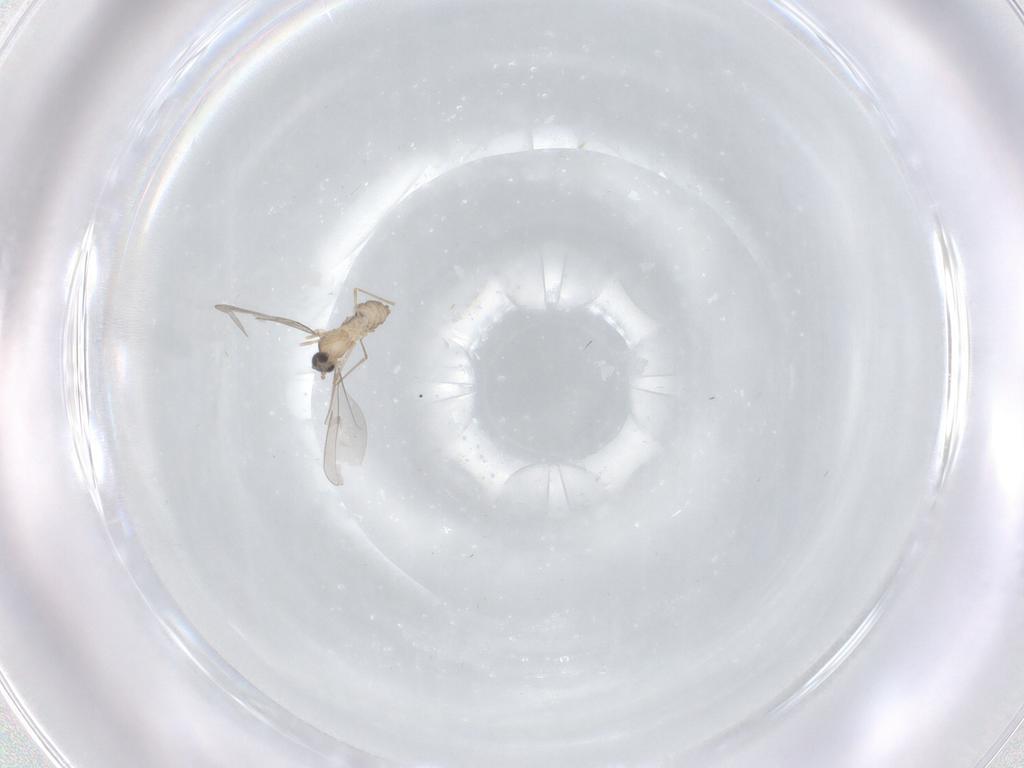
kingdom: Animalia
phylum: Arthropoda
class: Insecta
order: Diptera
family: Cecidomyiidae
